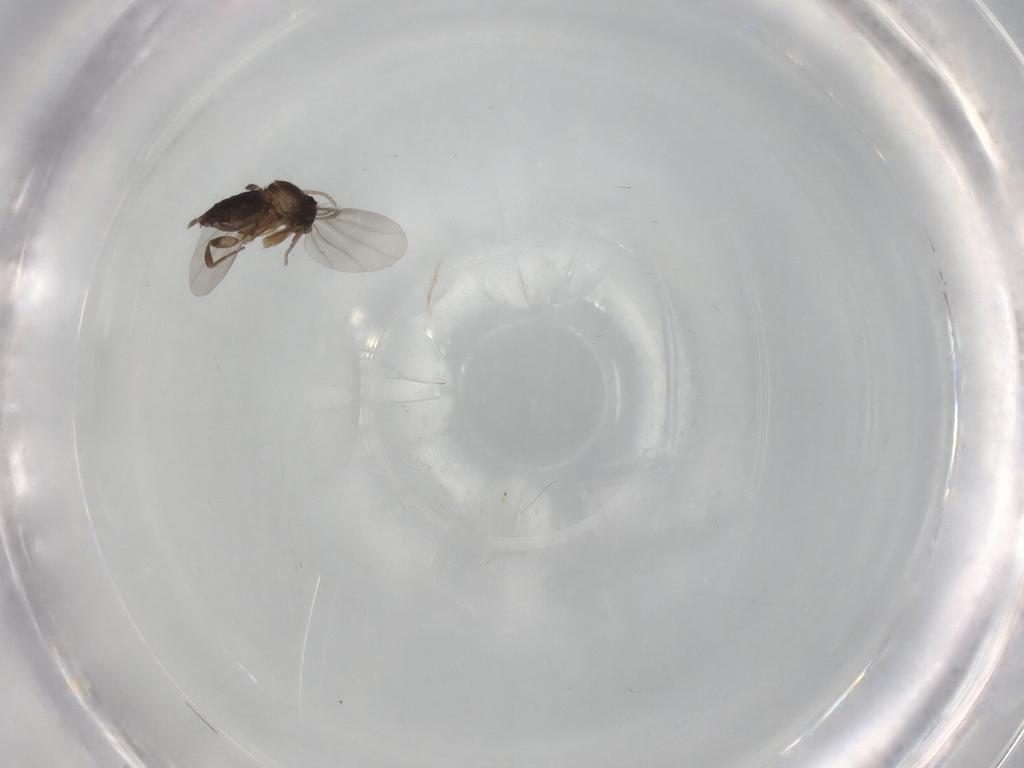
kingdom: Animalia
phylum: Arthropoda
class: Insecta
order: Diptera
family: Phoridae
